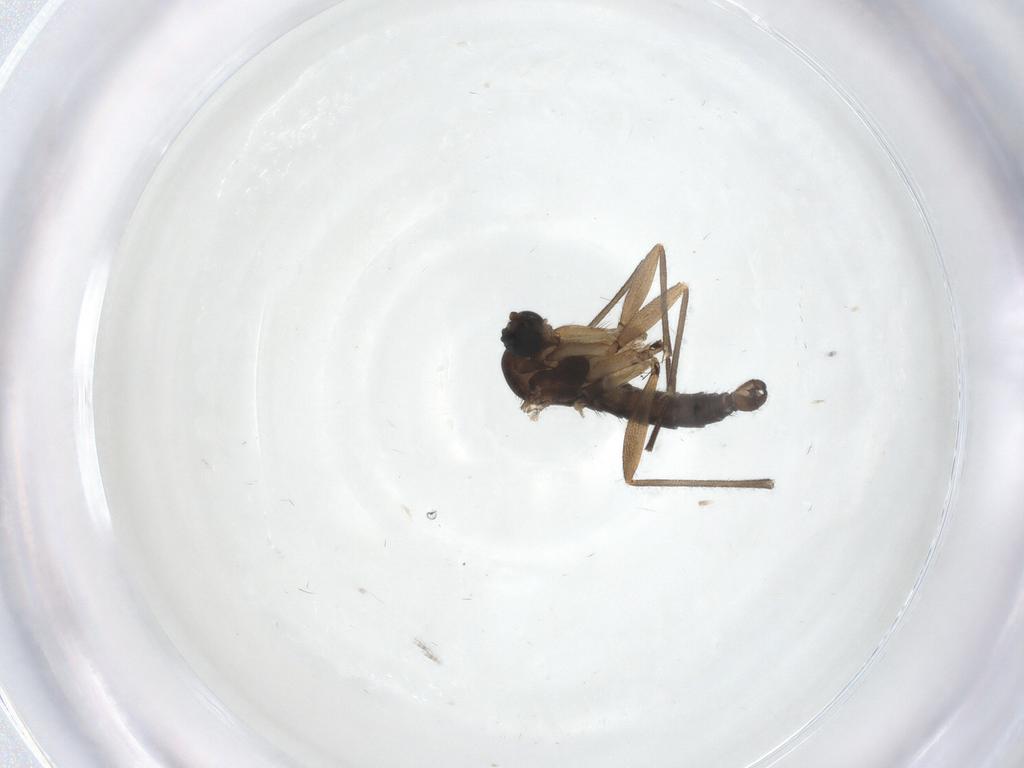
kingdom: Animalia
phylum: Arthropoda
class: Insecta
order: Diptera
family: Sciaridae
